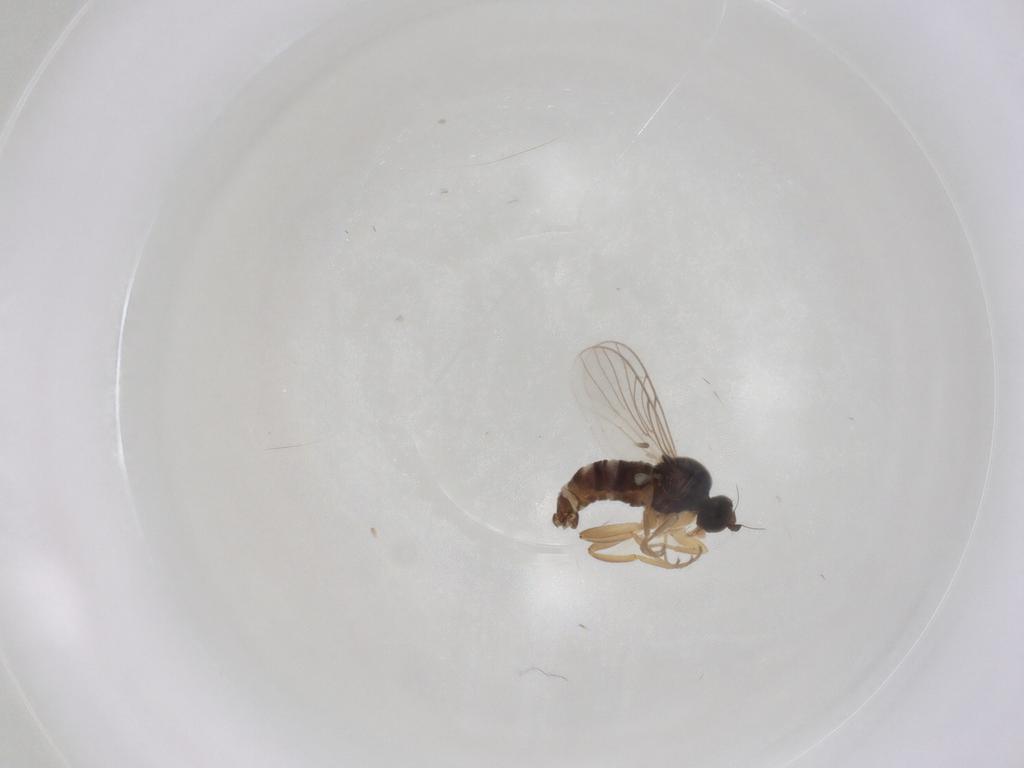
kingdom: Animalia
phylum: Arthropoda
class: Insecta
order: Diptera
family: Hybotidae
